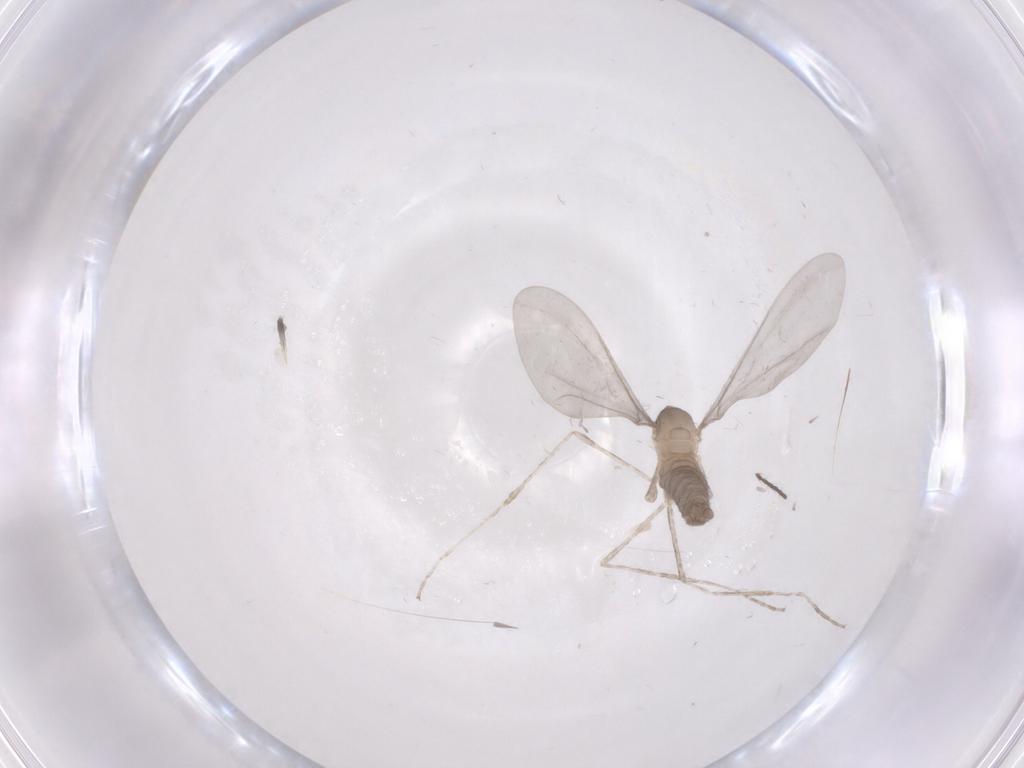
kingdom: Animalia
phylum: Arthropoda
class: Insecta
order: Diptera
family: Cecidomyiidae
